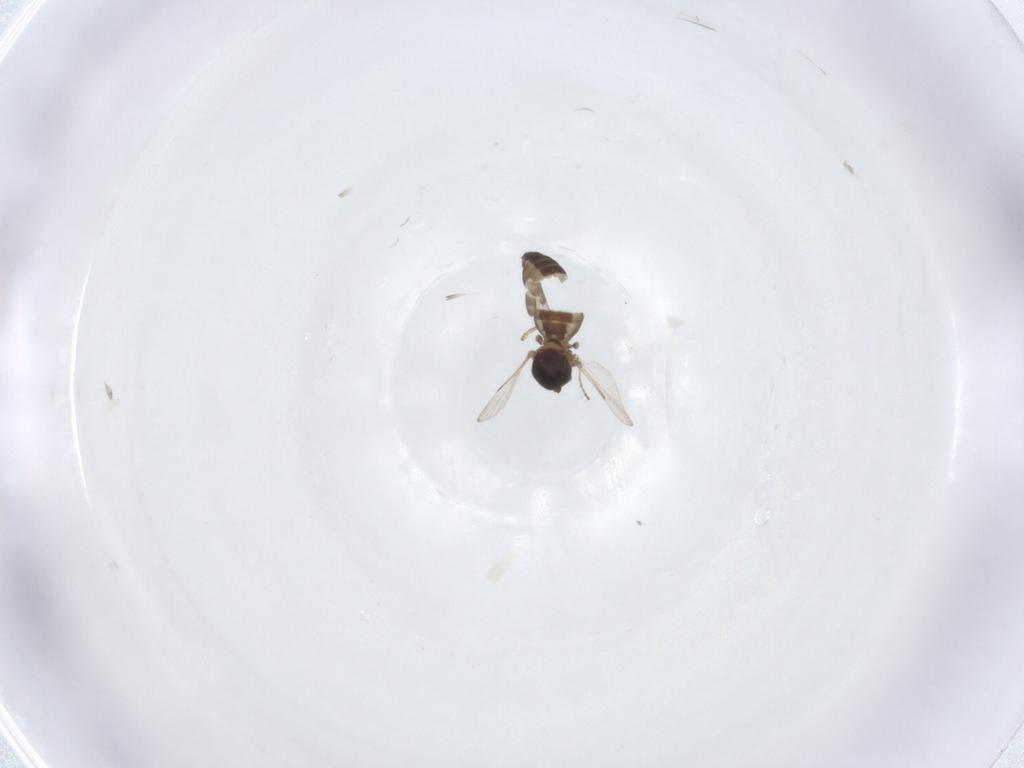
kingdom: Animalia
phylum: Arthropoda
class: Insecta
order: Diptera
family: Ceratopogonidae
